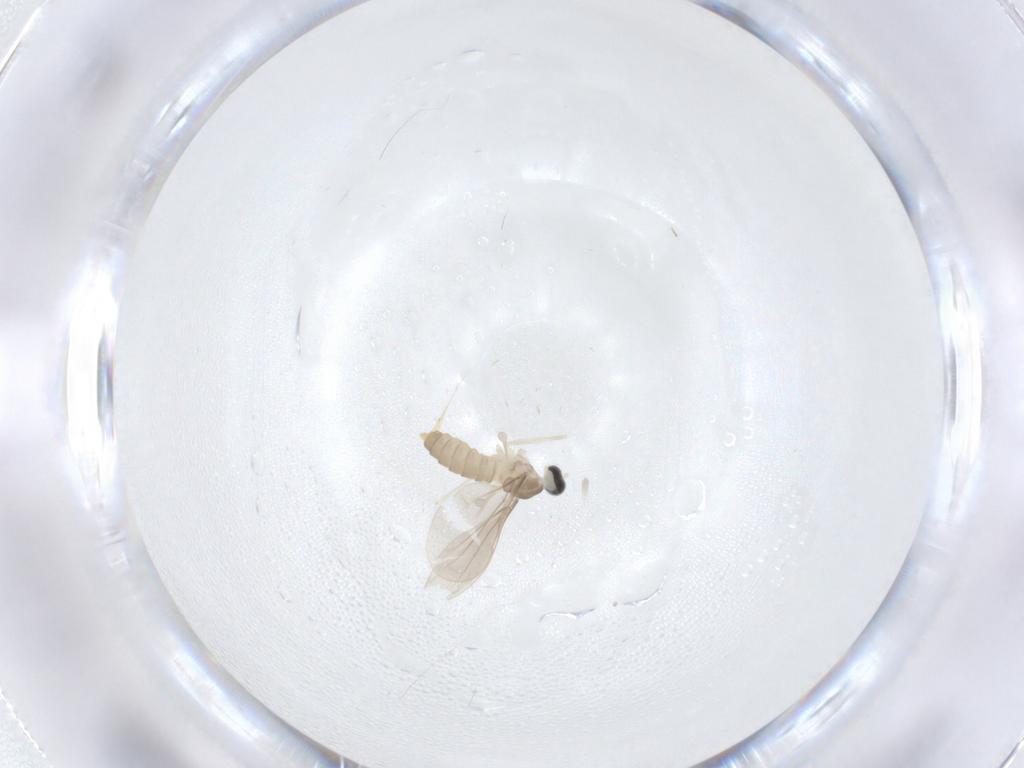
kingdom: Animalia
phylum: Arthropoda
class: Insecta
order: Diptera
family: Cecidomyiidae
